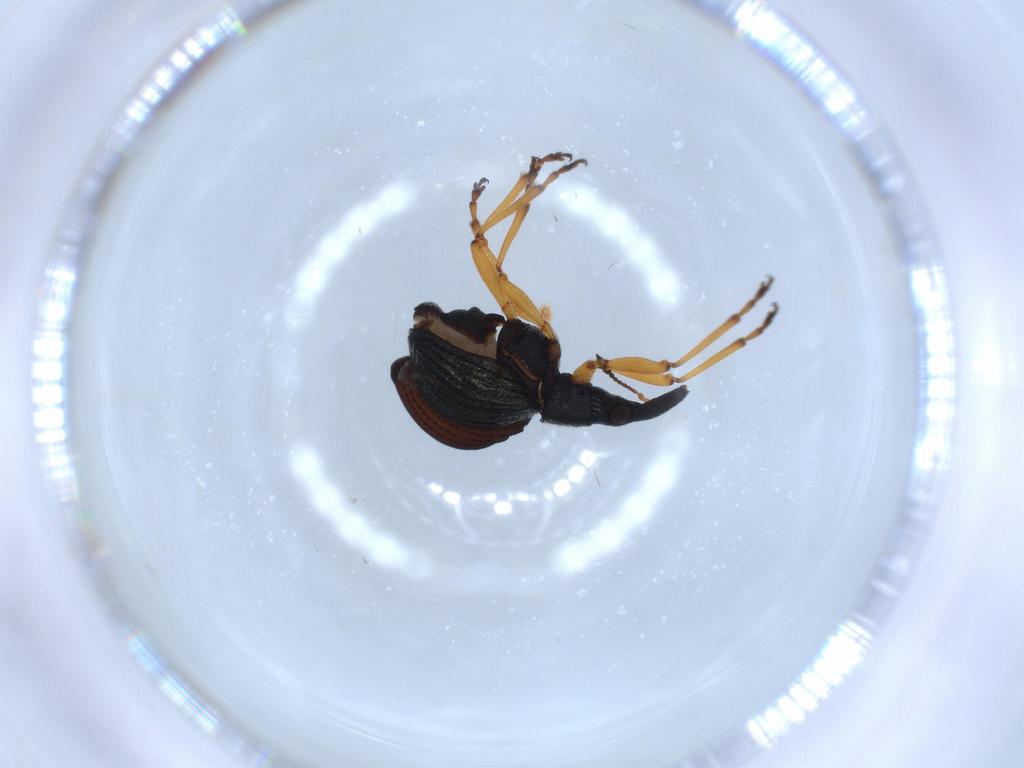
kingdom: Animalia
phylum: Arthropoda
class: Insecta
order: Coleoptera
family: Brentidae
